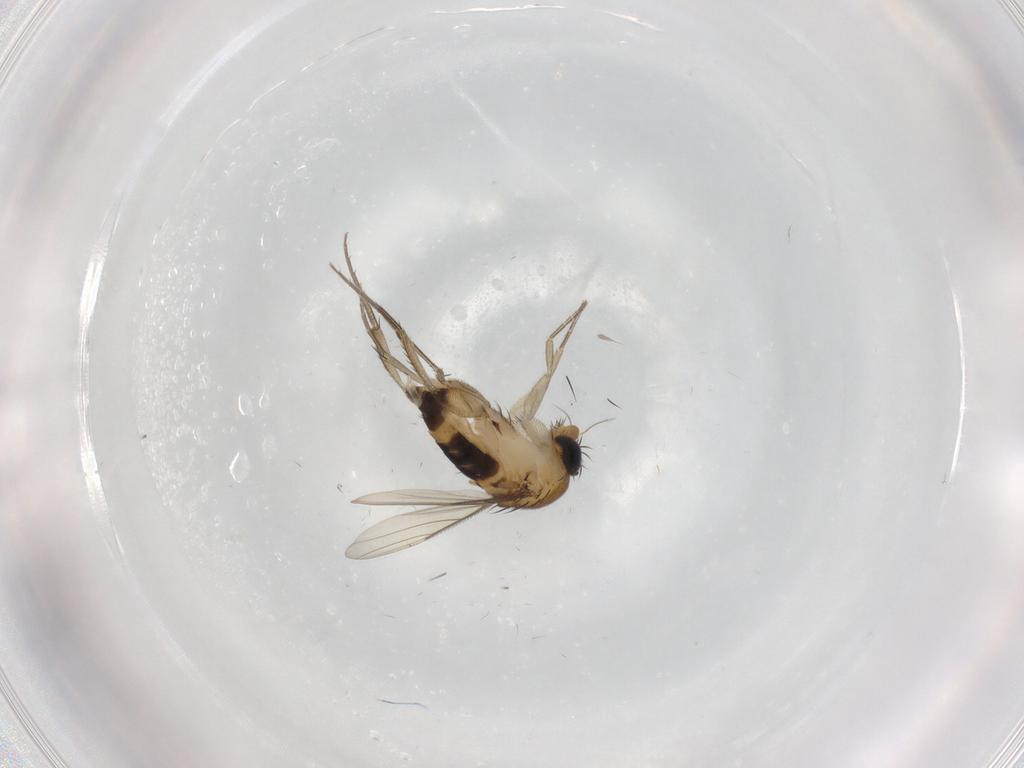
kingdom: Animalia
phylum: Arthropoda
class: Insecta
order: Diptera
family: Phoridae
